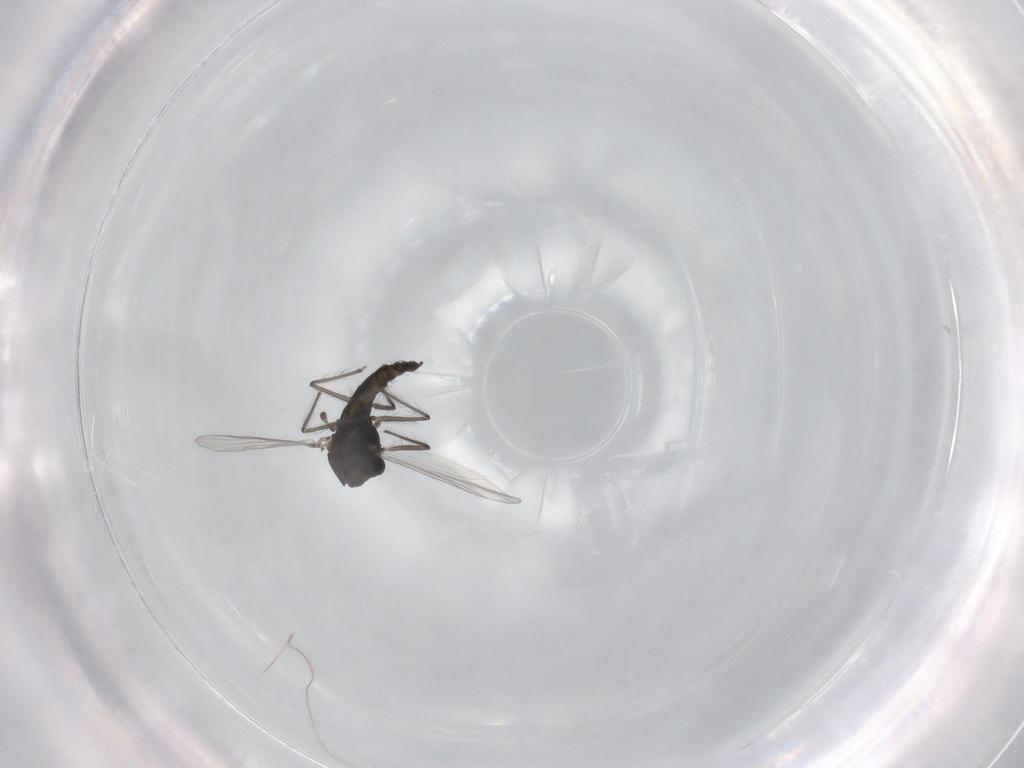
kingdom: Animalia
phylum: Arthropoda
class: Insecta
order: Diptera
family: Chironomidae
